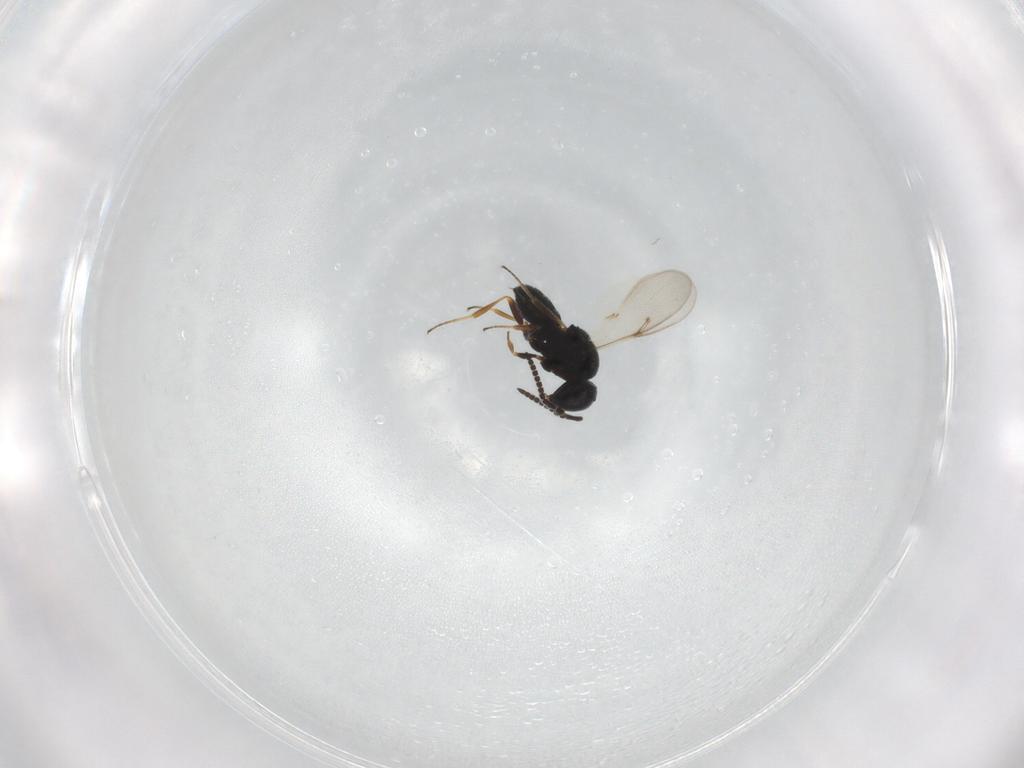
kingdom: Animalia
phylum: Arthropoda
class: Insecta
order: Hymenoptera
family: Scelionidae
